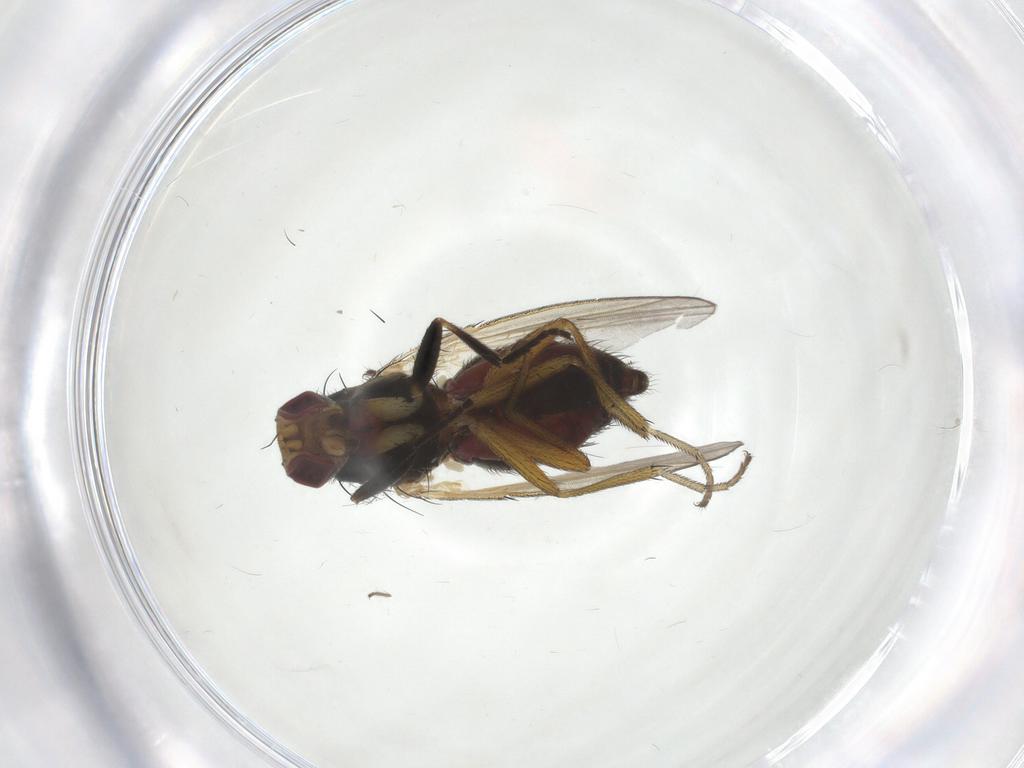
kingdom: Animalia
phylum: Arthropoda
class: Insecta
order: Diptera
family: Heleomyzidae
